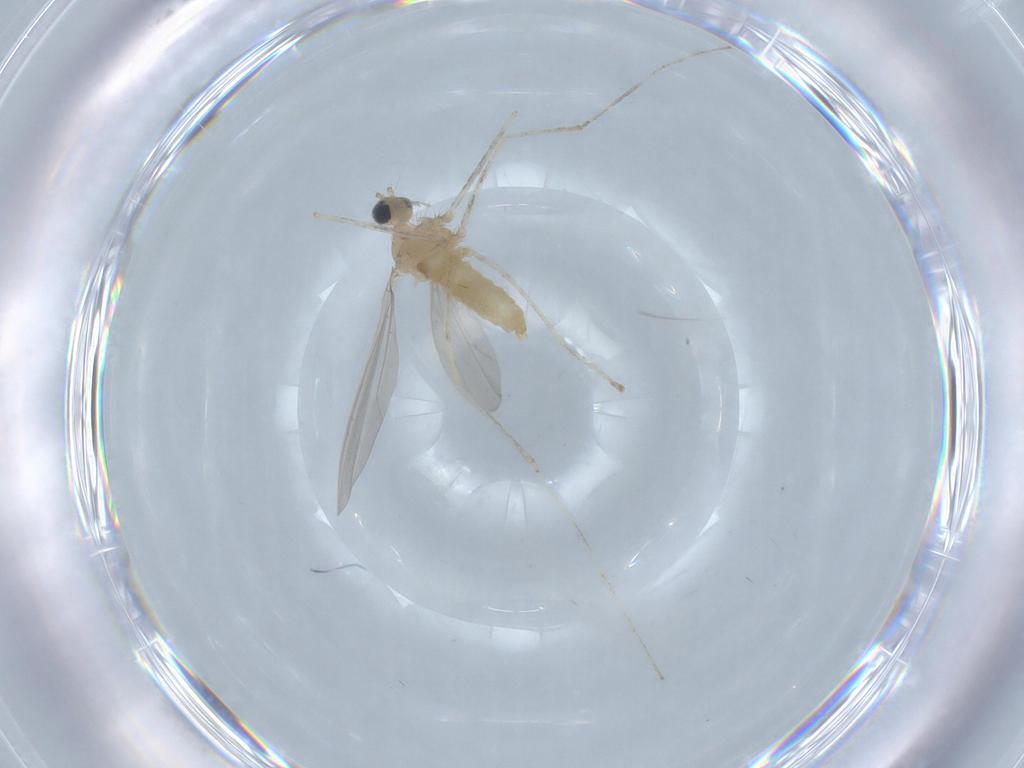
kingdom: Animalia
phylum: Arthropoda
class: Insecta
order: Diptera
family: Cecidomyiidae
